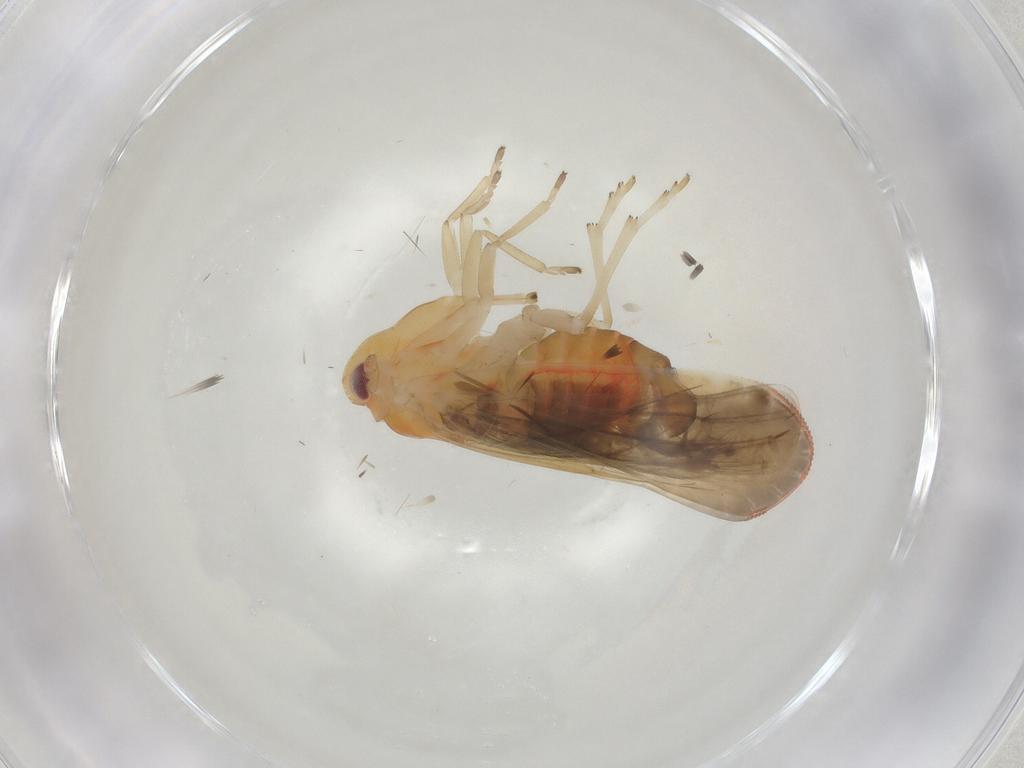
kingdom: Animalia
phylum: Arthropoda
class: Insecta
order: Hemiptera
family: Derbidae
